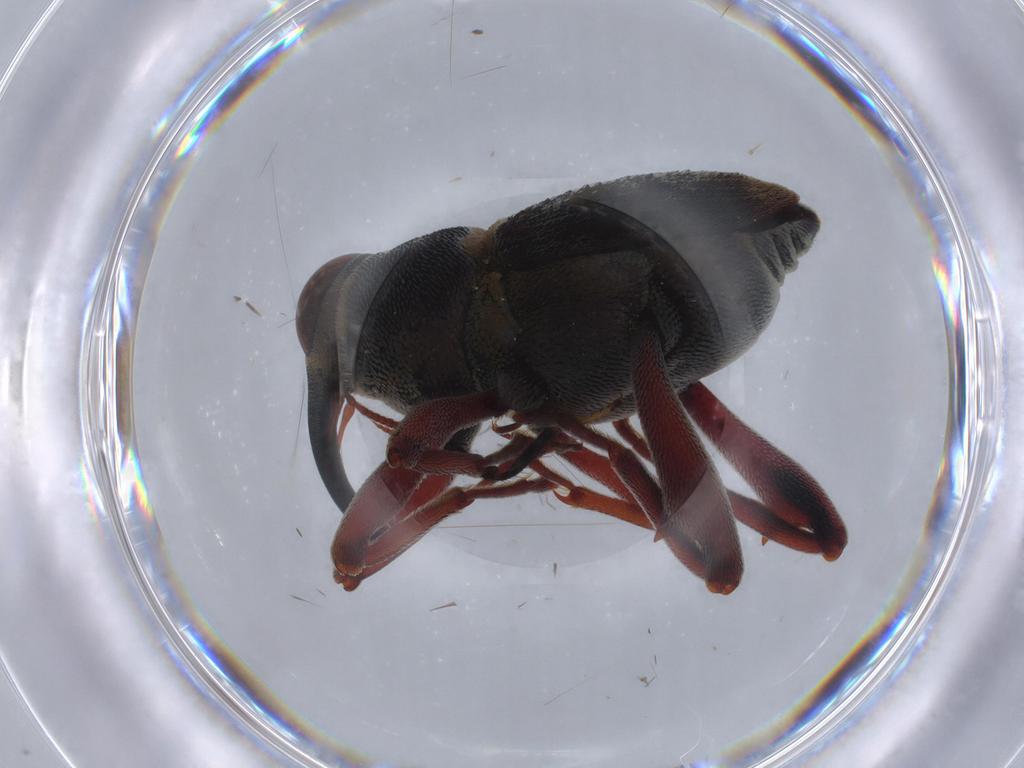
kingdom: Animalia
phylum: Arthropoda
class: Insecta
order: Coleoptera
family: Curculionidae
